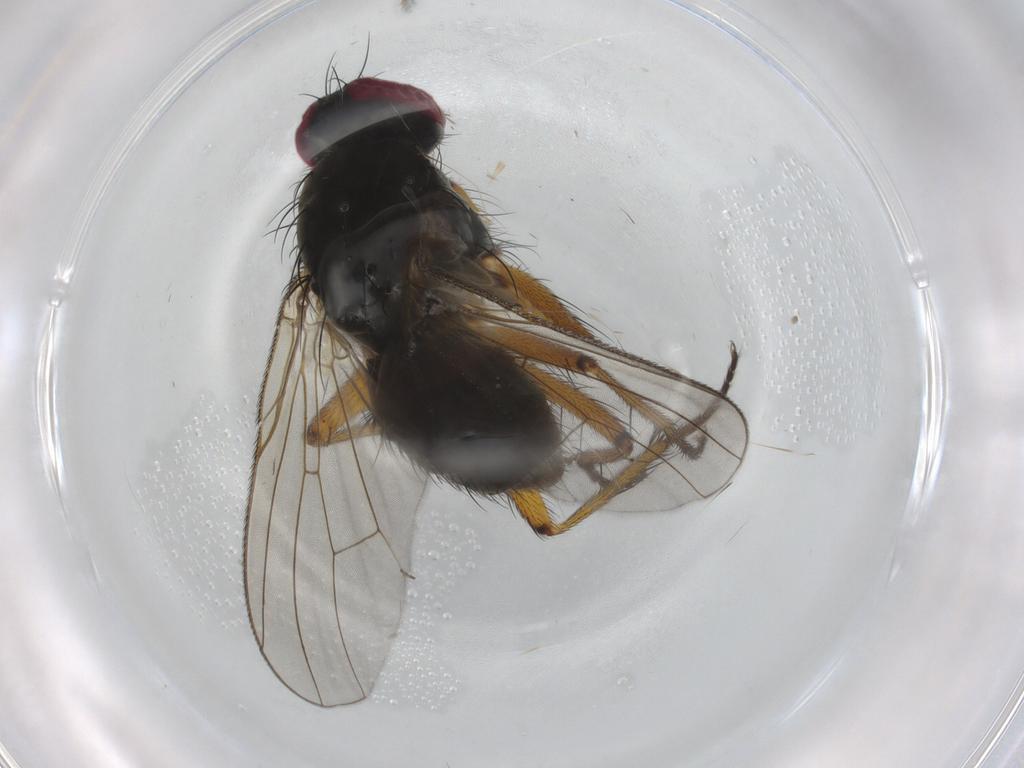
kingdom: Animalia
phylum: Arthropoda
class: Insecta
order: Diptera
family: Muscidae
